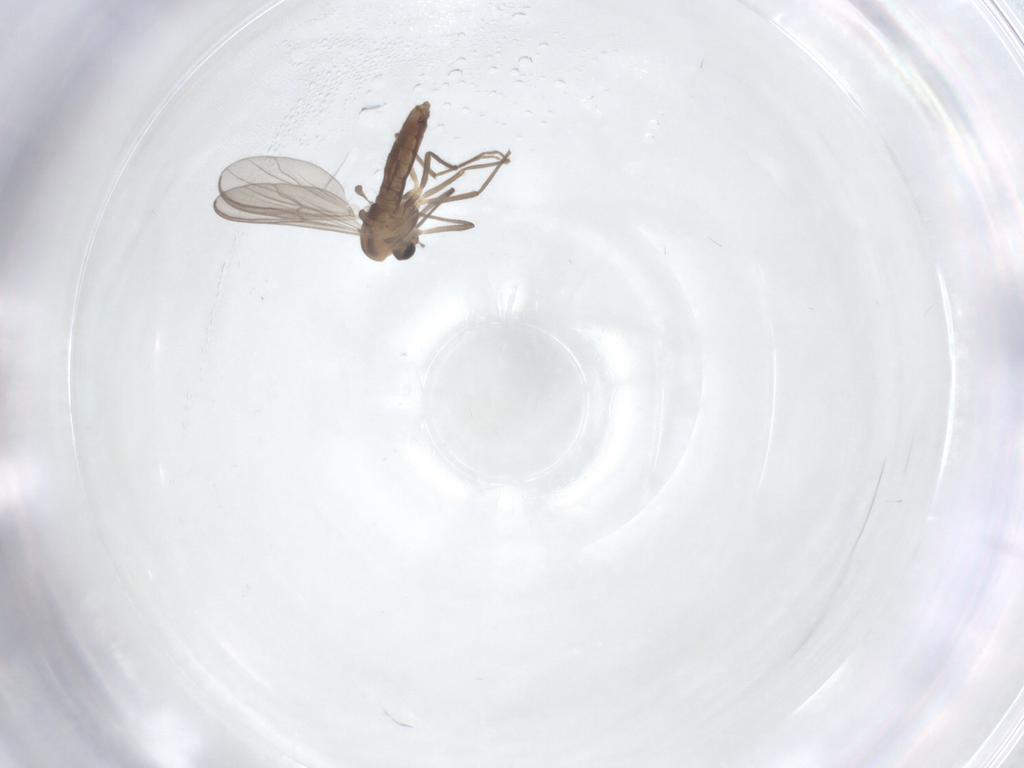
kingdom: Animalia
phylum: Arthropoda
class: Insecta
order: Diptera
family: Chironomidae
